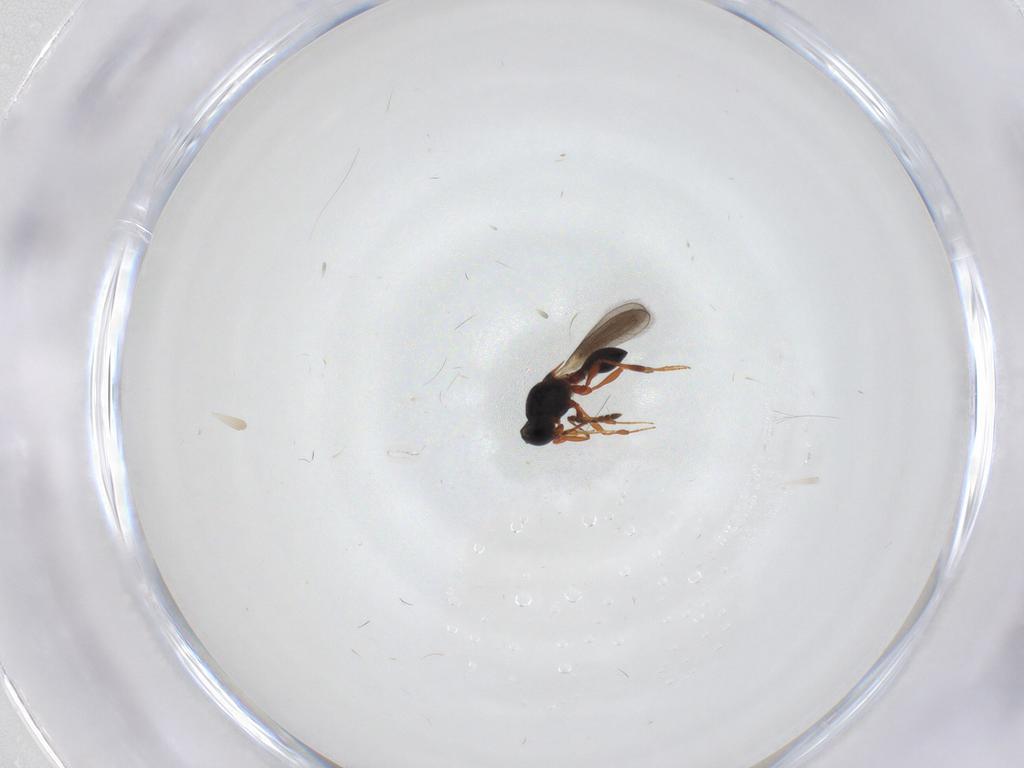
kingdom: Animalia
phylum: Arthropoda
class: Insecta
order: Hymenoptera
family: Platygastridae
